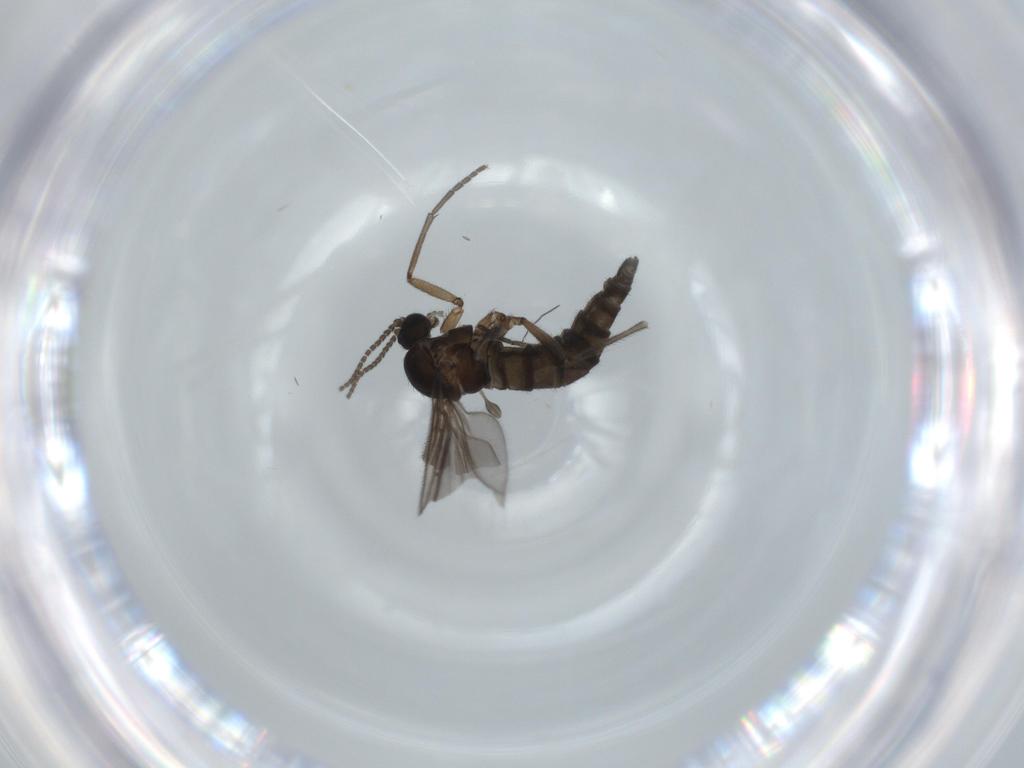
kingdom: Animalia
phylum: Arthropoda
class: Insecta
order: Diptera
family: Sciaridae
